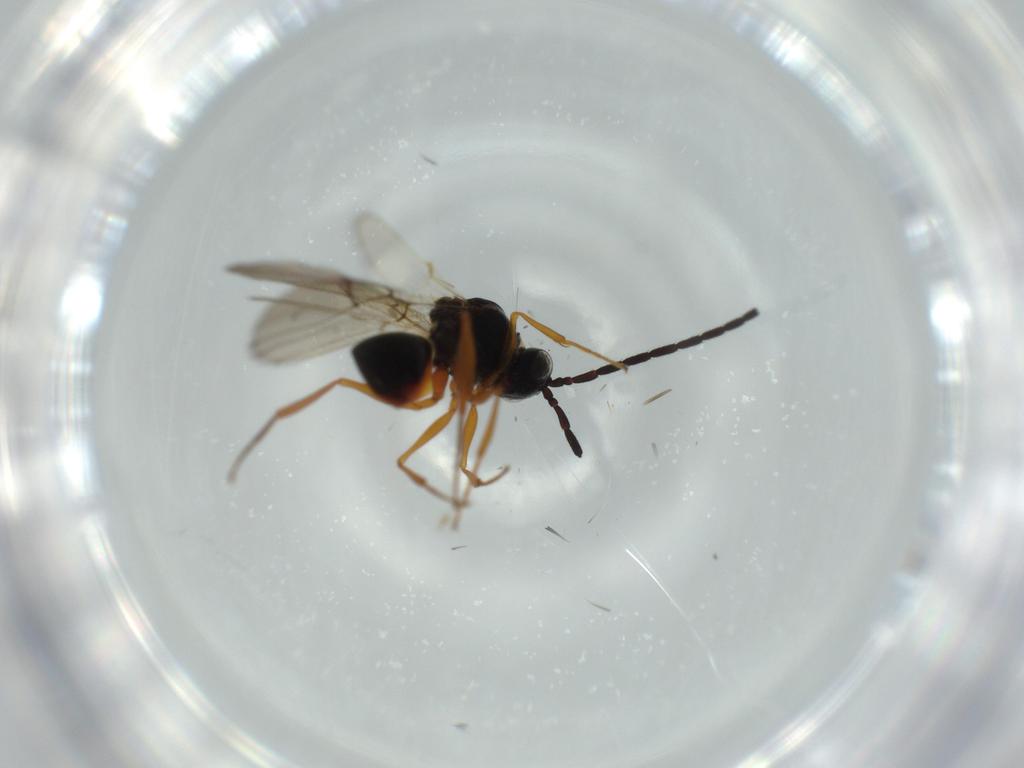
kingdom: Animalia
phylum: Arthropoda
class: Insecta
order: Hymenoptera
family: Figitidae
